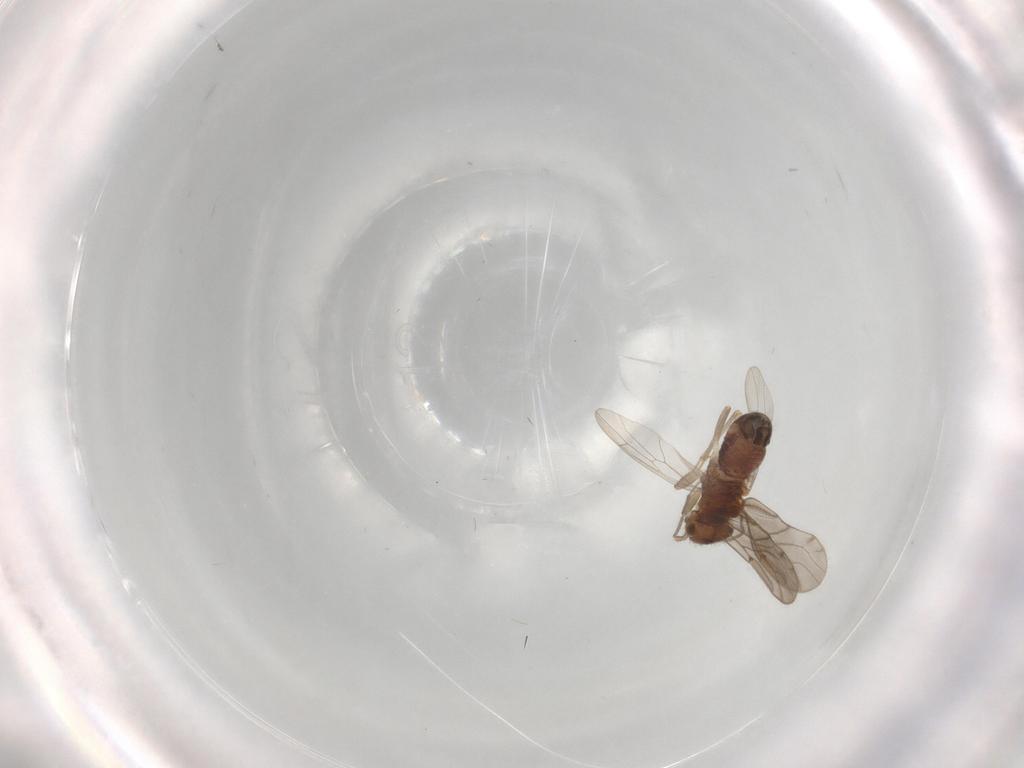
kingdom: Animalia
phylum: Arthropoda
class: Insecta
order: Psocodea
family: Ectopsocidae
